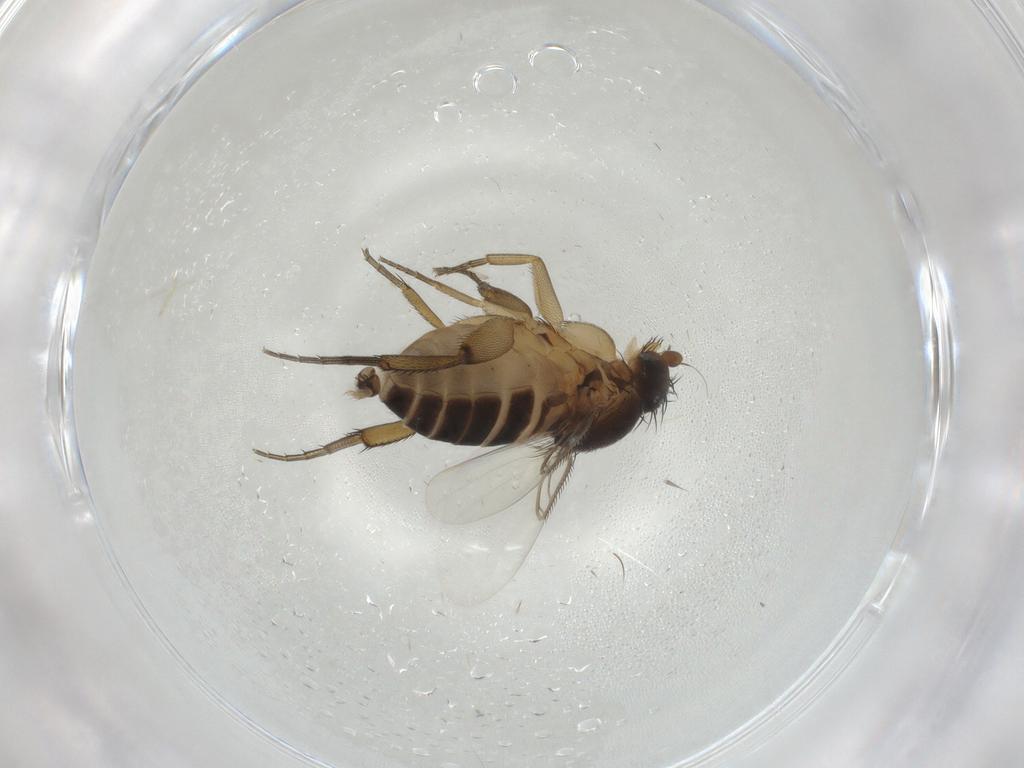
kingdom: Animalia
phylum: Arthropoda
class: Insecta
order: Diptera
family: Phoridae
